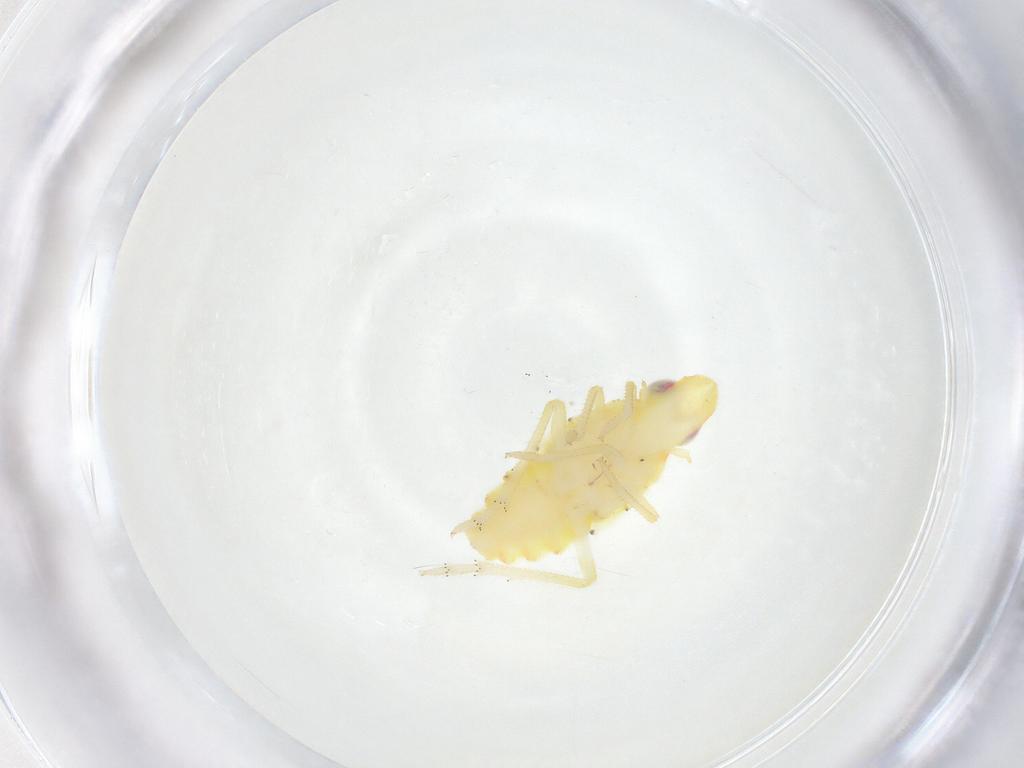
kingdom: Animalia
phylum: Arthropoda
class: Insecta
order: Hemiptera
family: Tropiduchidae
